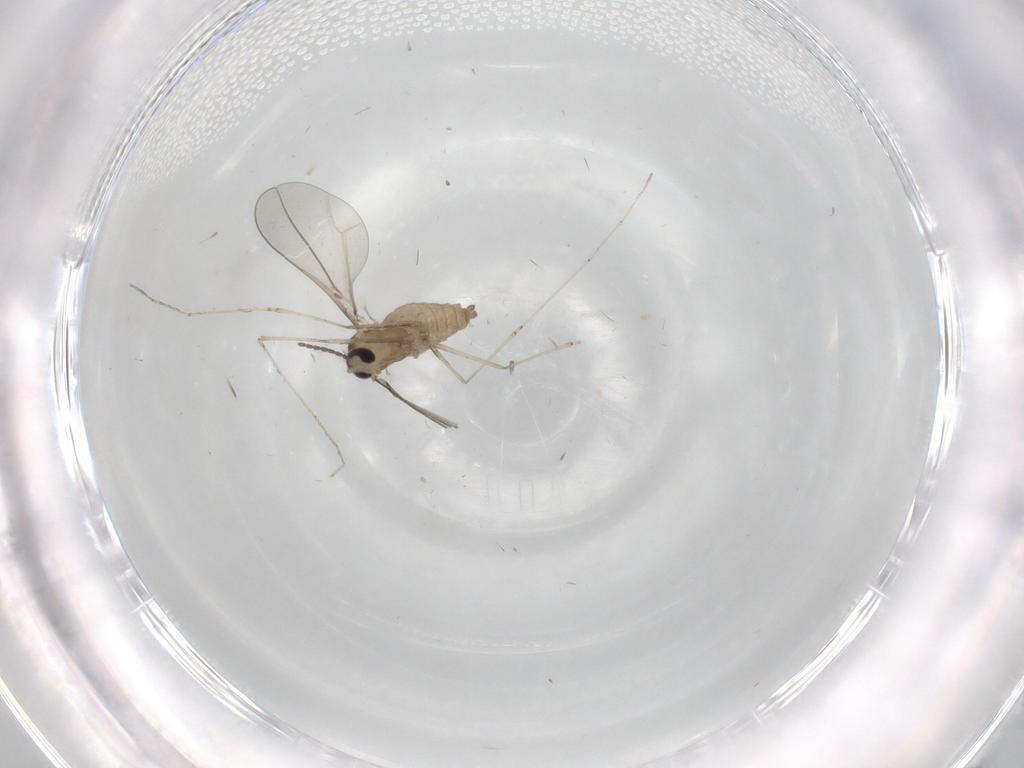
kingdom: Animalia
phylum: Arthropoda
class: Insecta
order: Diptera
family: Cecidomyiidae
